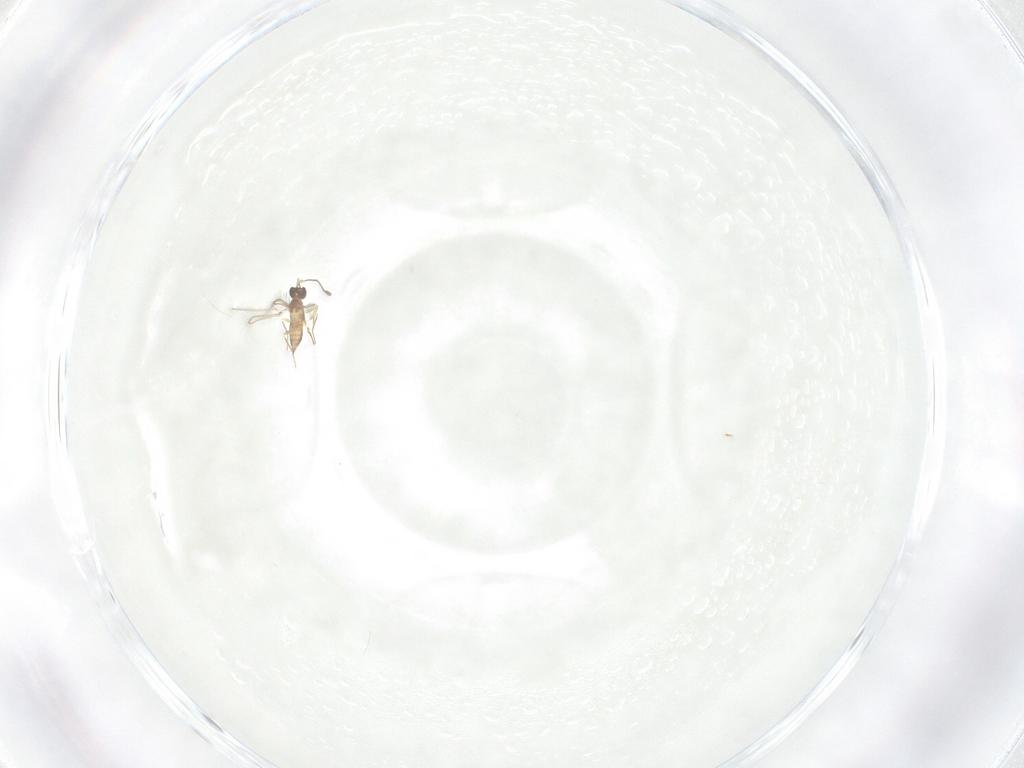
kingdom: Animalia
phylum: Arthropoda
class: Insecta
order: Hymenoptera
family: Mymaridae
